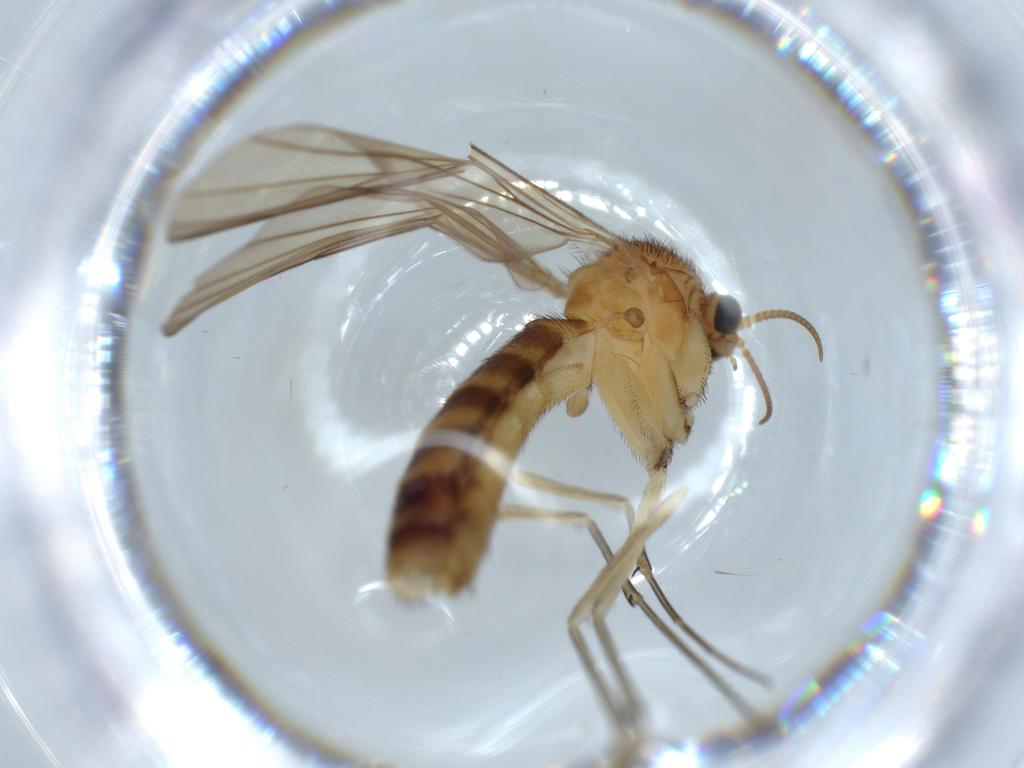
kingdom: Animalia
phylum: Arthropoda
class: Insecta
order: Diptera
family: Sciaridae
